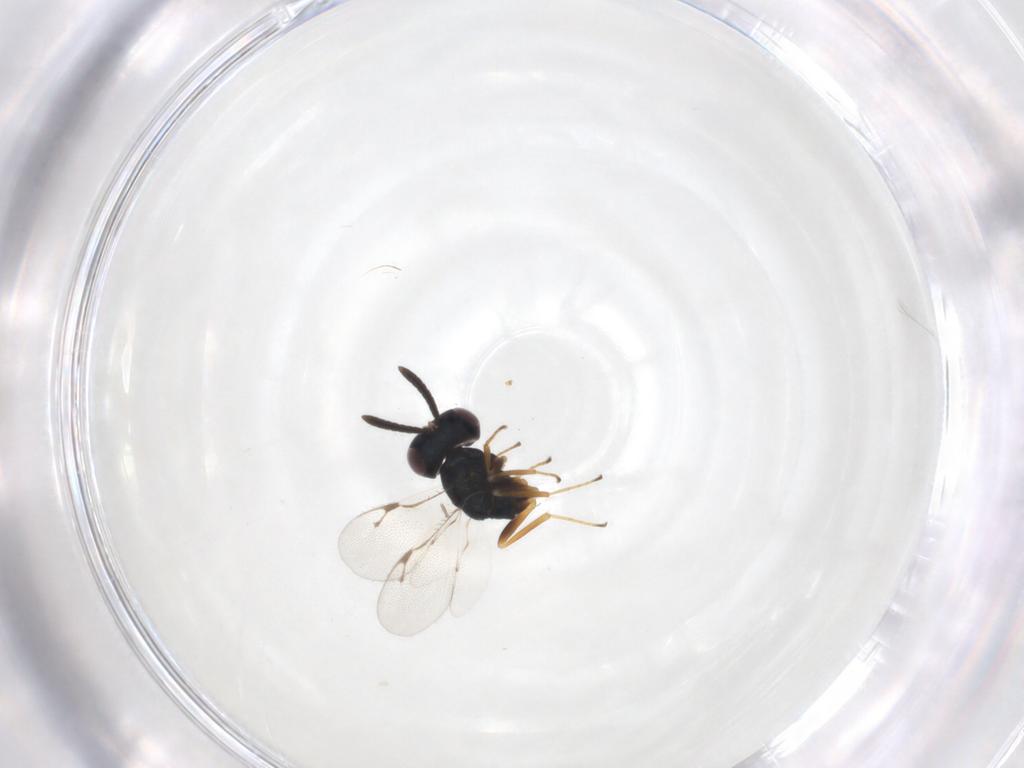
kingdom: Animalia
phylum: Arthropoda
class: Insecta
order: Hymenoptera
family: Pteromalidae
